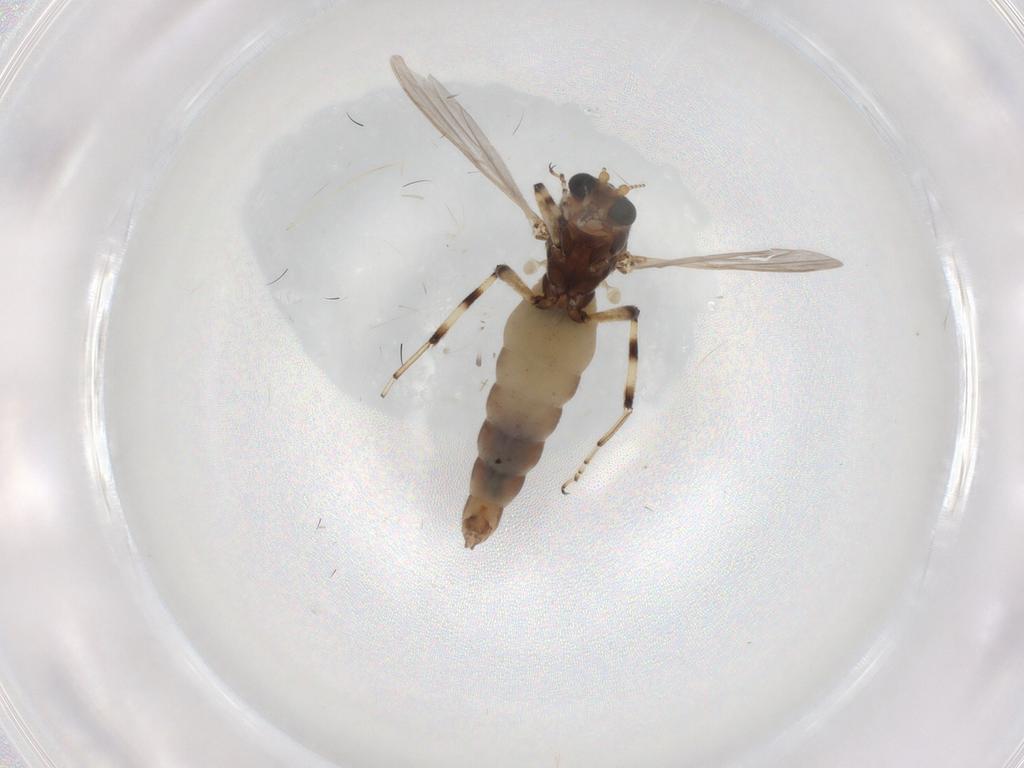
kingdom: Animalia
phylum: Arthropoda
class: Insecta
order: Diptera
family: Ceratopogonidae
